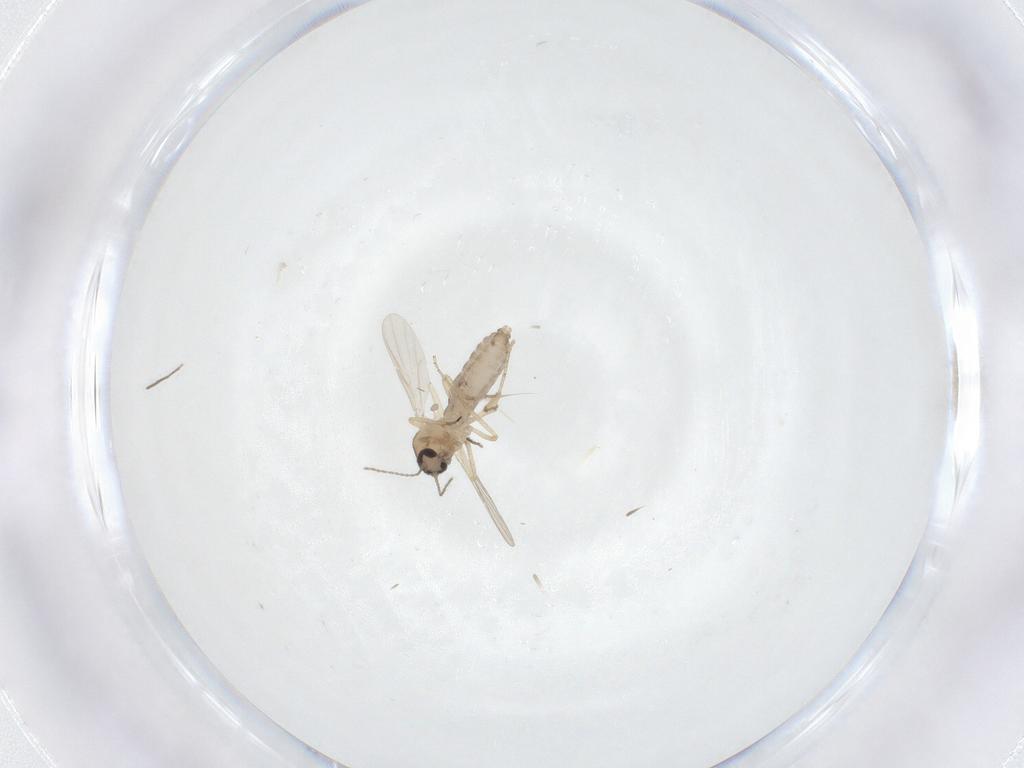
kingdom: Animalia
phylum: Arthropoda
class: Insecta
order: Diptera
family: Ceratopogonidae
